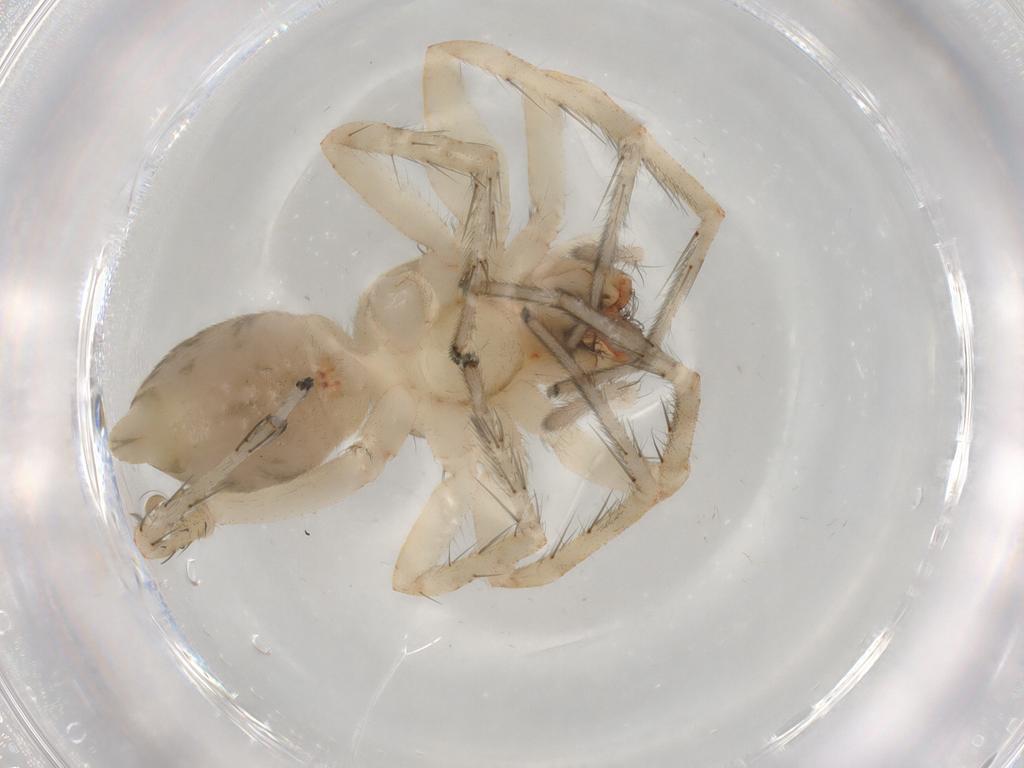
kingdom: Animalia
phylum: Arthropoda
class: Arachnida
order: Araneae
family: Anyphaenidae
